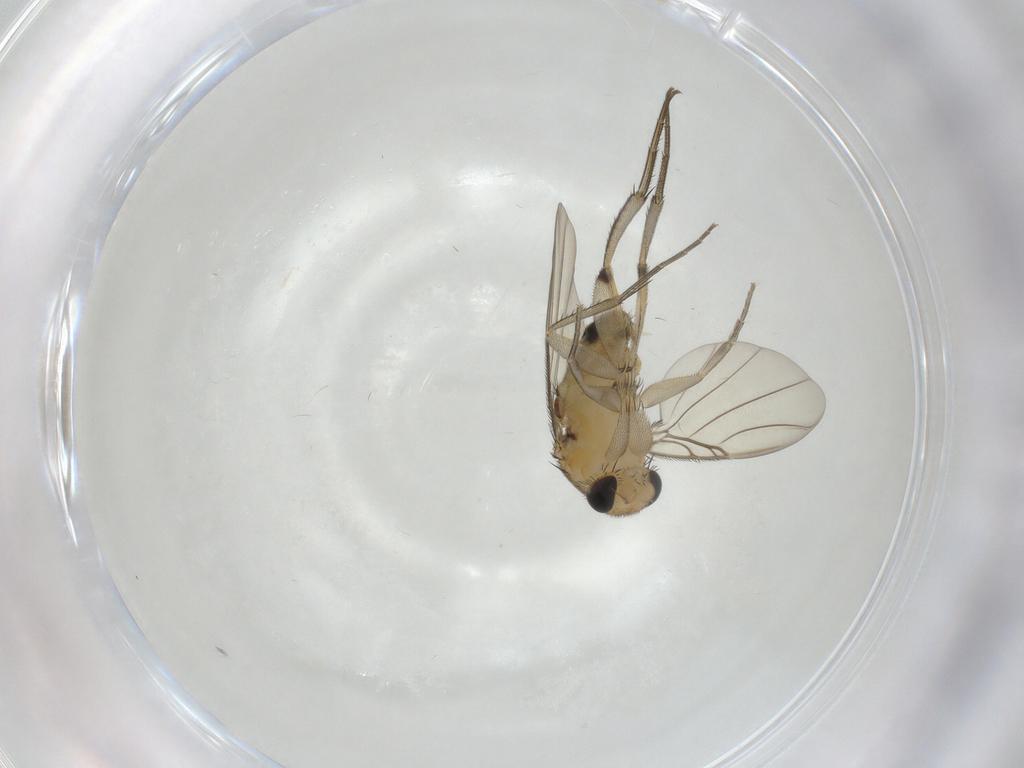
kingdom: Animalia
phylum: Arthropoda
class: Insecta
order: Diptera
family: Phoridae
